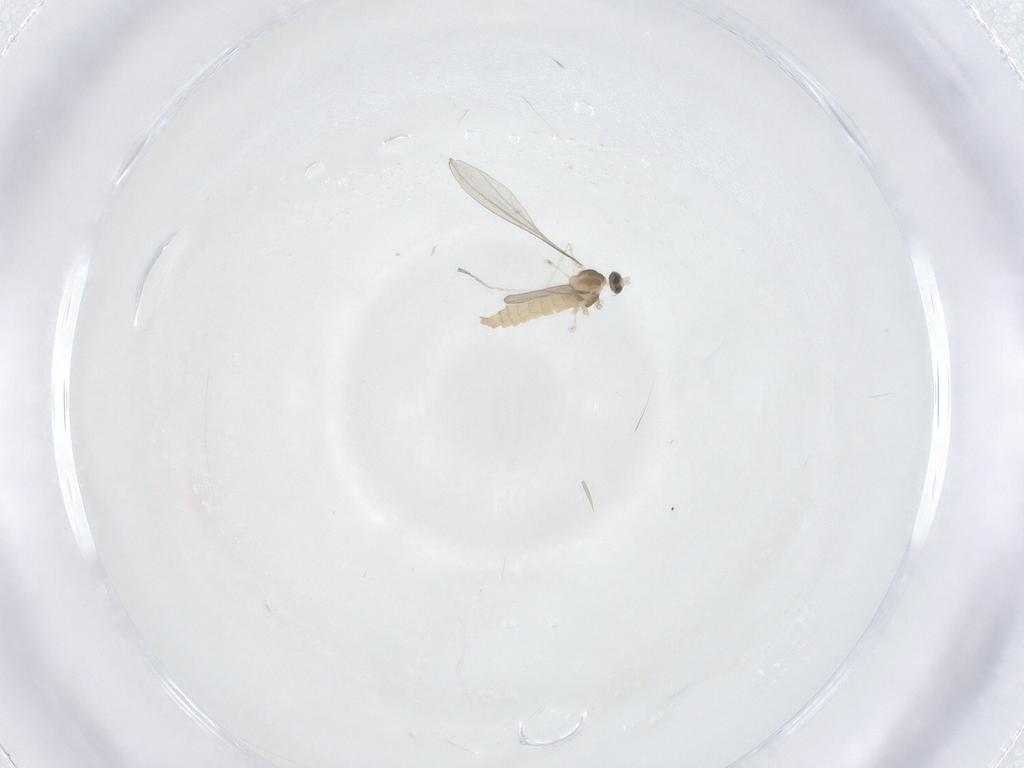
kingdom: Animalia
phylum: Arthropoda
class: Insecta
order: Diptera
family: Cecidomyiidae
